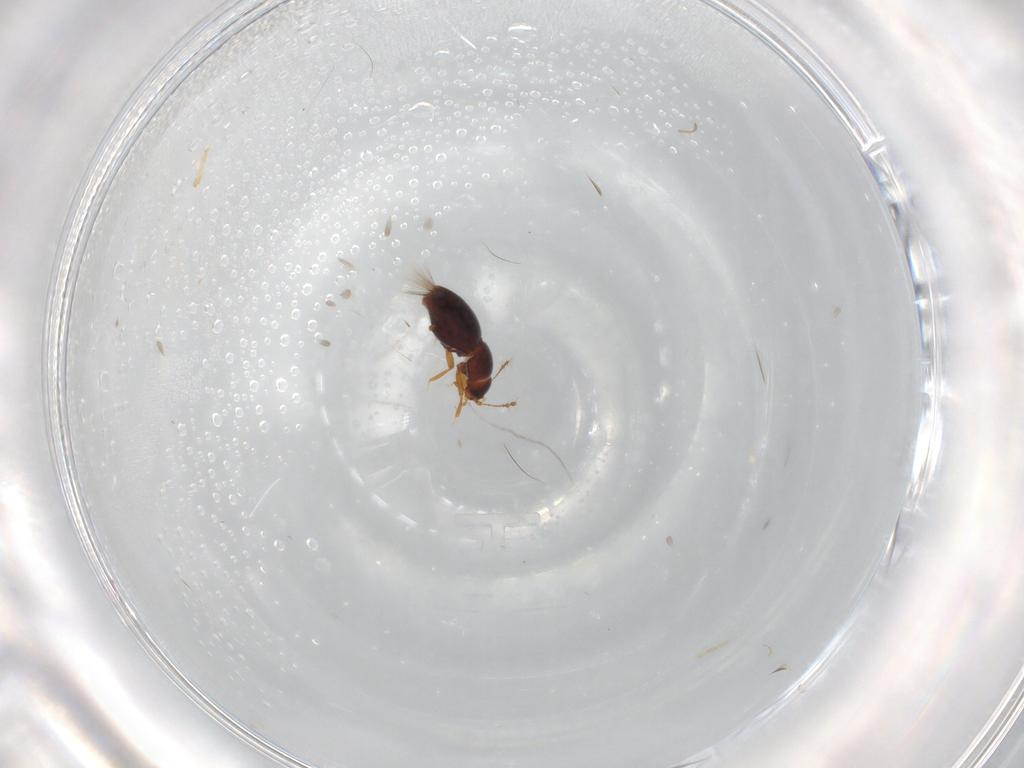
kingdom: Animalia
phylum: Arthropoda
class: Insecta
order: Coleoptera
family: Ptiliidae
